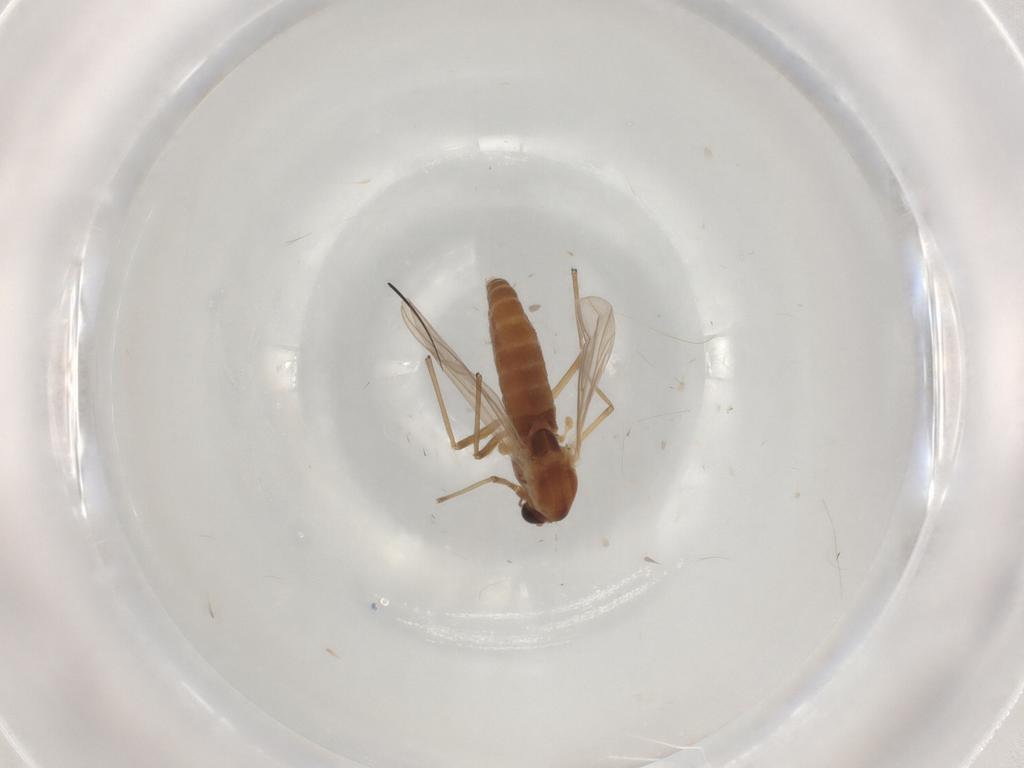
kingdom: Animalia
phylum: Arthropoda
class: Insecta
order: Diptera
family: Chironomidae
